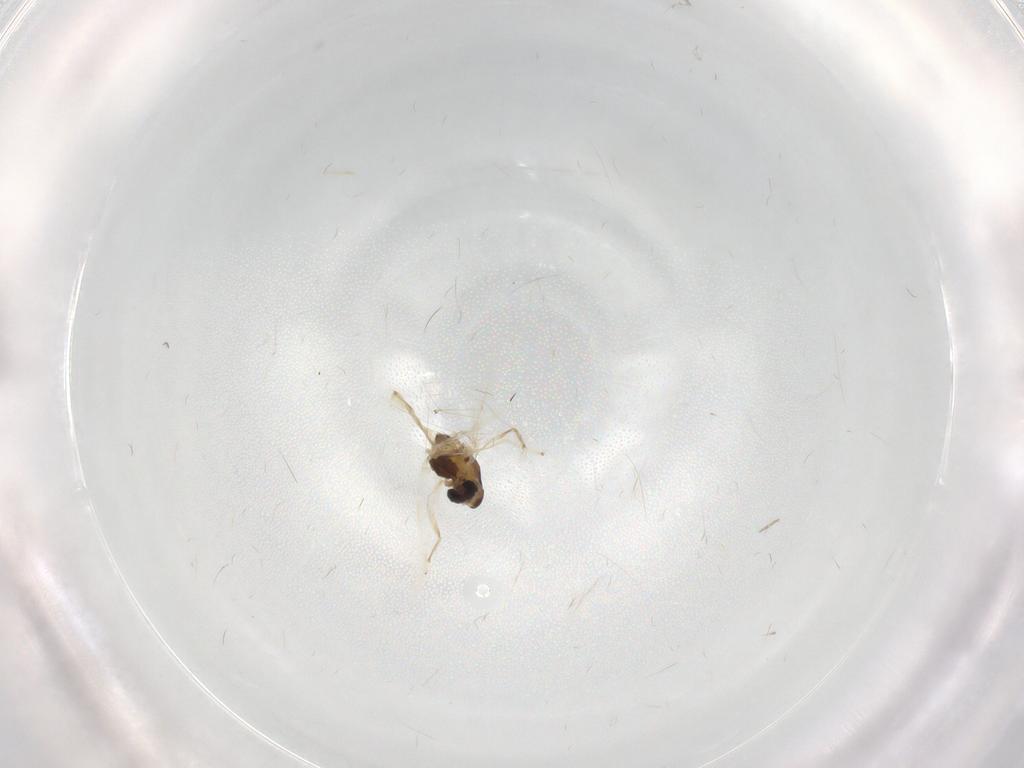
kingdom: Animalia
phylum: Arthropoda
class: Insecta
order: Diptera
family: Chironomidae
